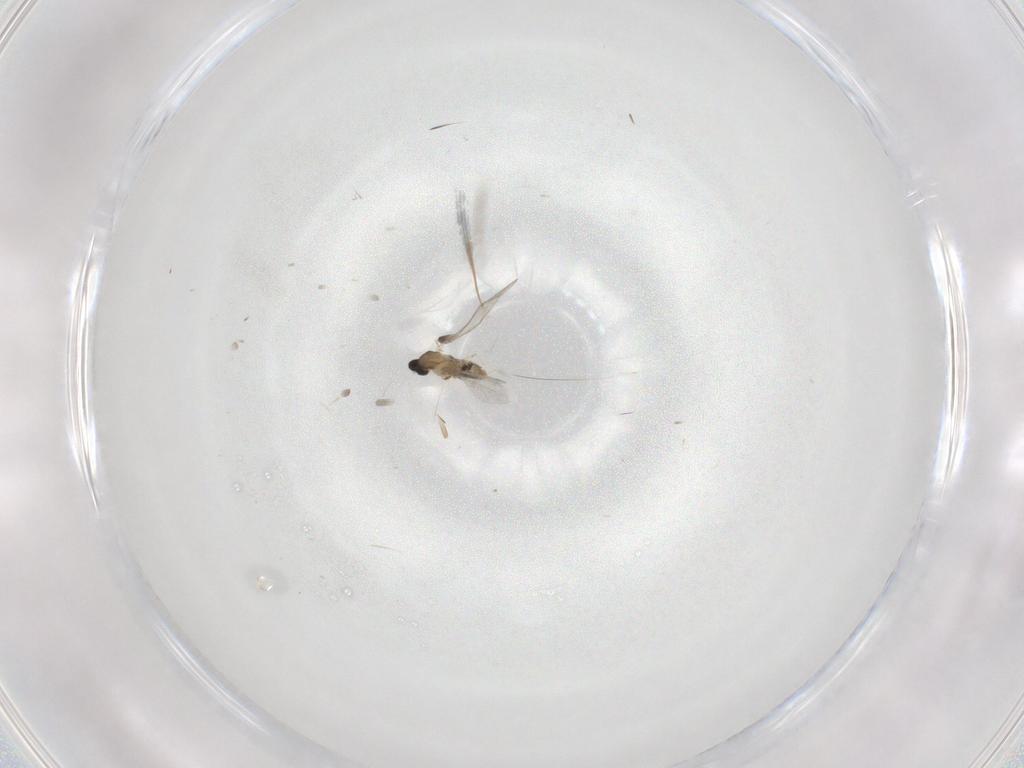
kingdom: Animalia
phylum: Arthropoda
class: Insecta
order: Diptera
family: Cecidomyiidae
